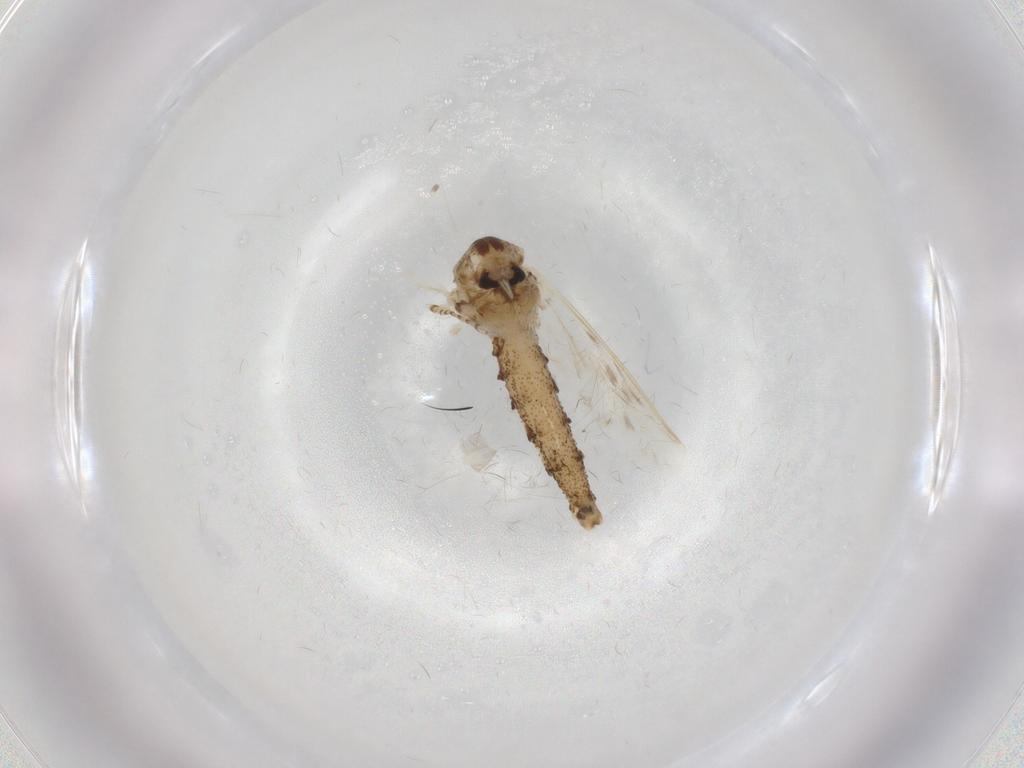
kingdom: Animalia
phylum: Arthropoda
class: Insecta
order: Diptera
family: Chaoboridae
